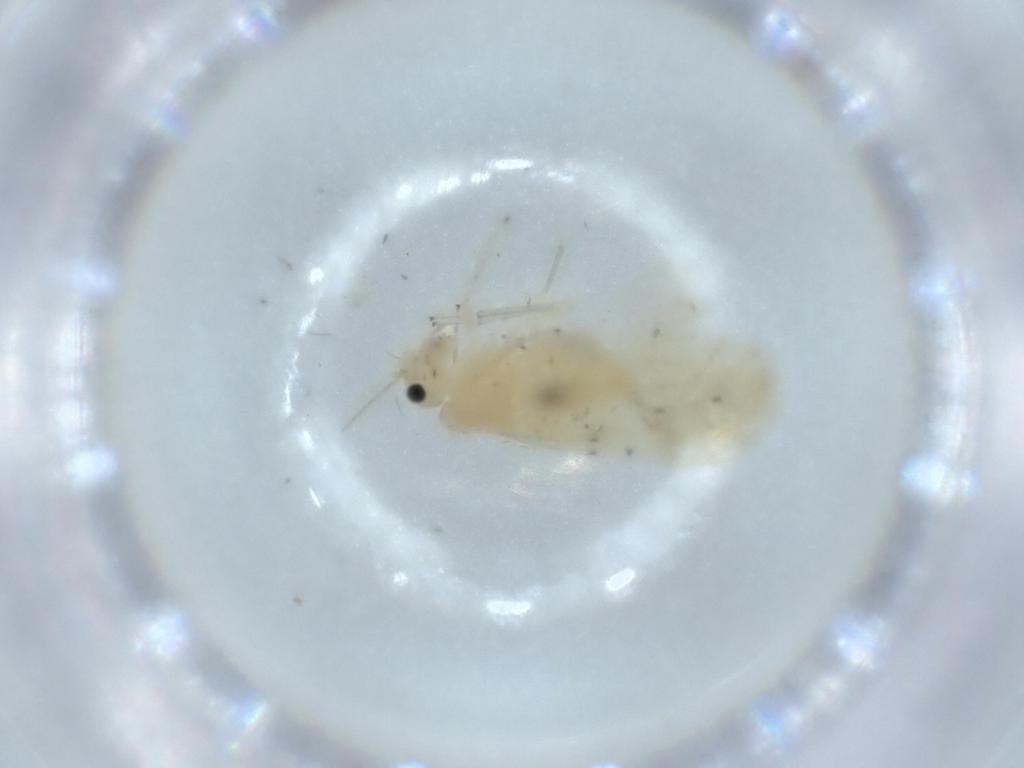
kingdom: Animalia
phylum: Arthropoda
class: Insecta
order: Psocodea
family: Caeciliusidae
